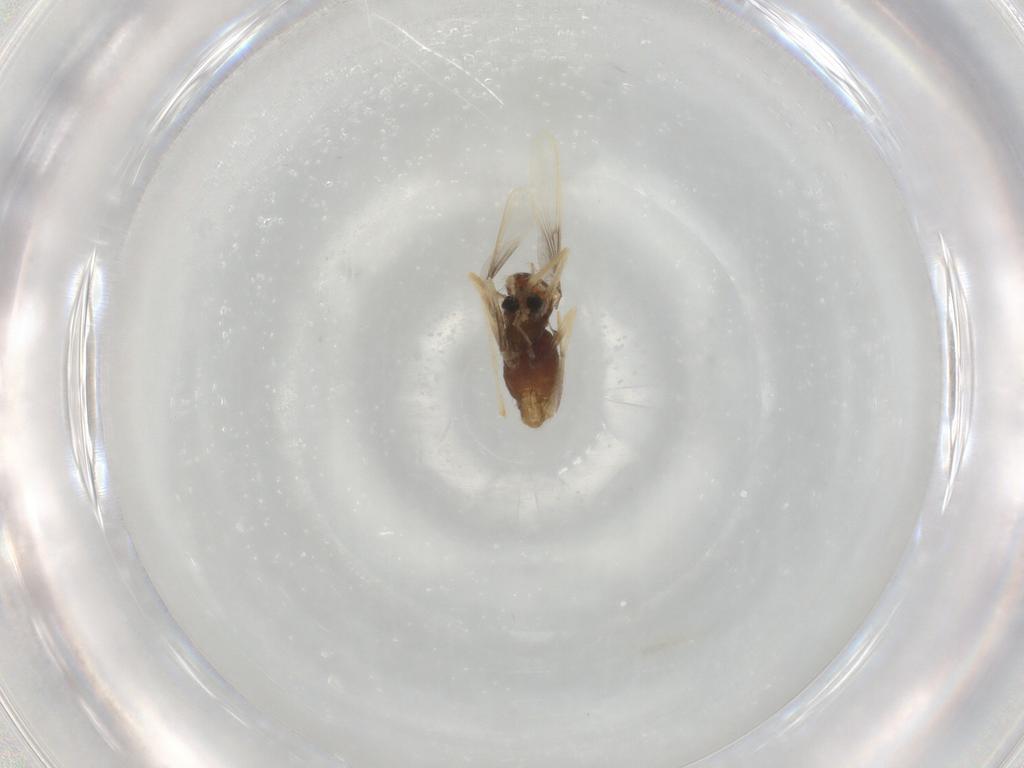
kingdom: Animalia
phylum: Arthropoda
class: Insecta
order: Diptera
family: Chironomidae
